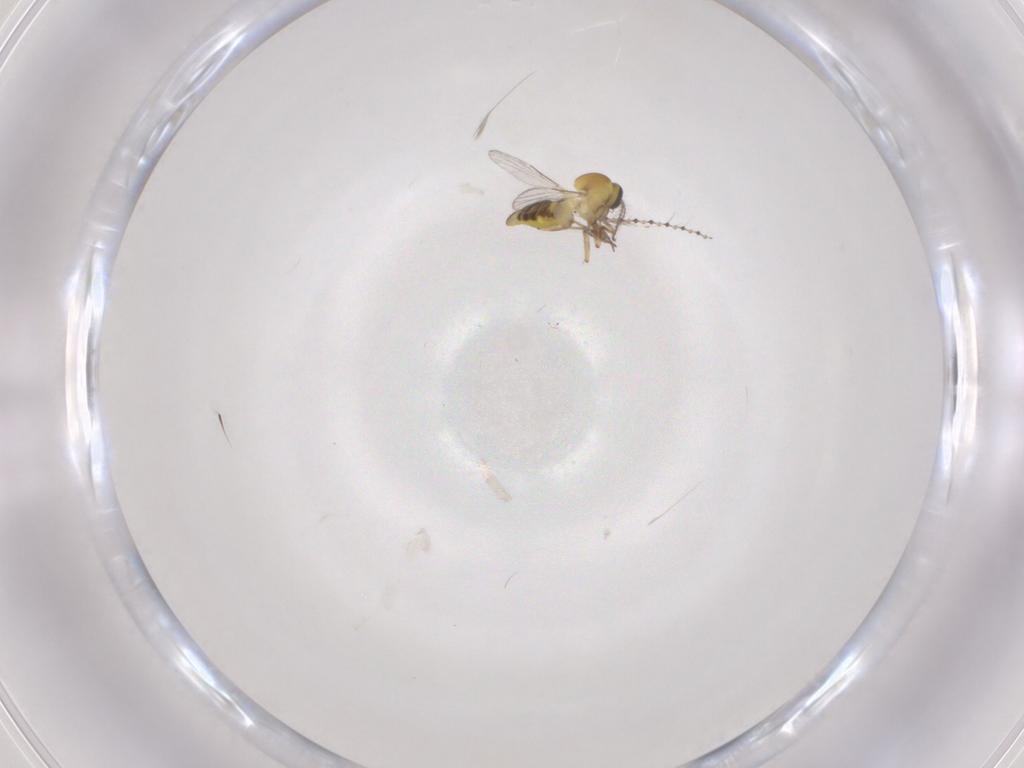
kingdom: Animalia
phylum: Arthropoda
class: Insecta
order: Diptera
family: Cecidomyiidae
